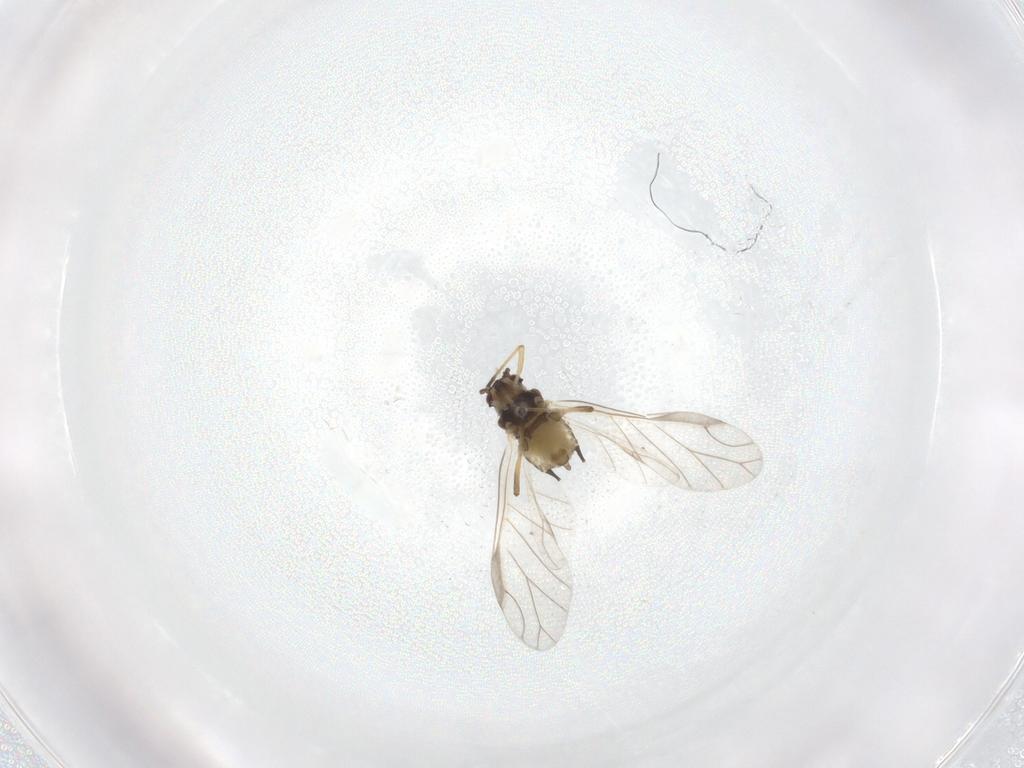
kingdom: Animalia
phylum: Arthropoda
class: Insecta
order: Hemiptera
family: Aphididae
